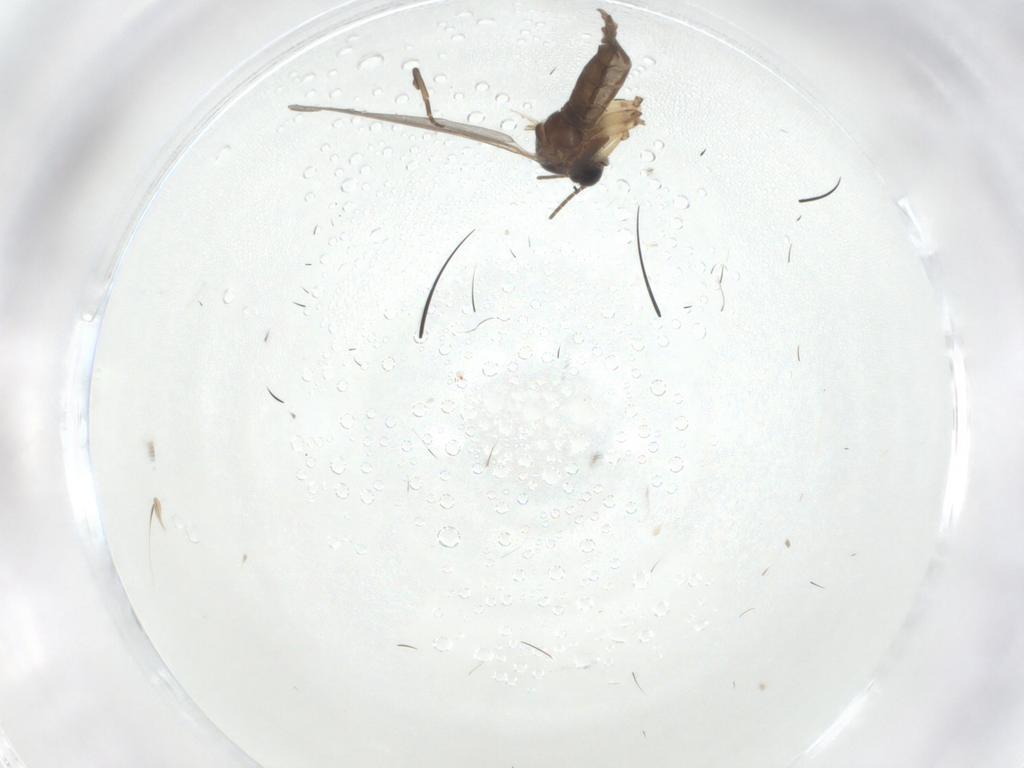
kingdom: Animalia
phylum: Arthropoda
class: Insecta
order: Diptera
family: Sciaridae
